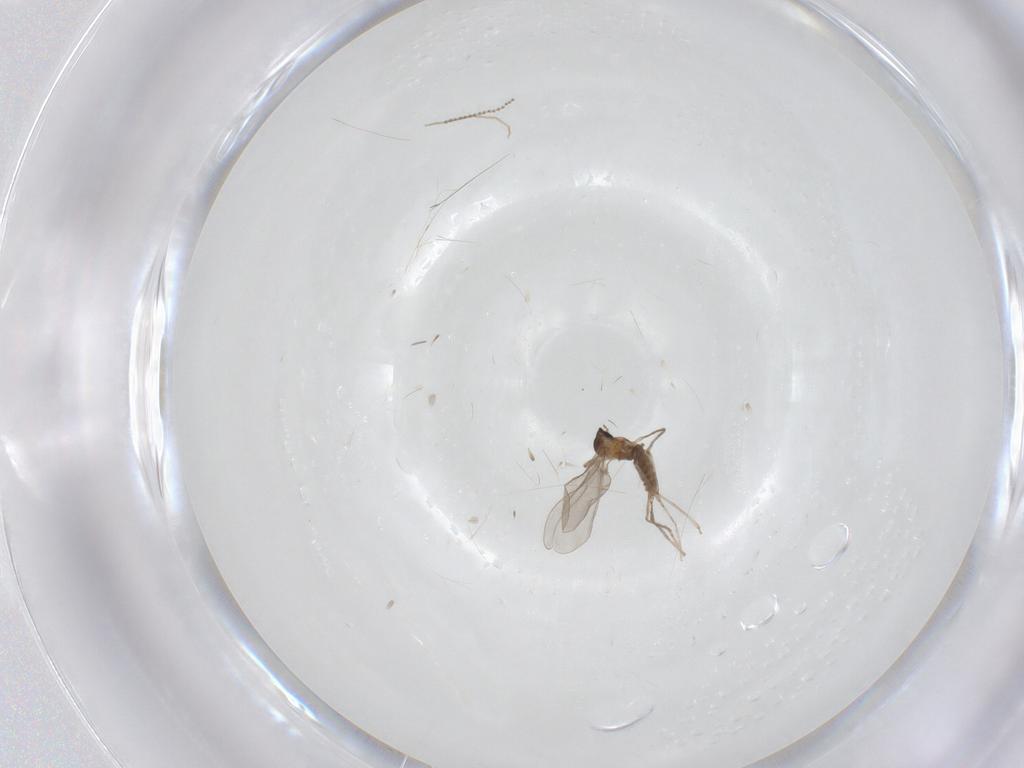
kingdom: Animalia
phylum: Arthropoda
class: Insecta
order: Diptera
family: Cecidomyiidae
